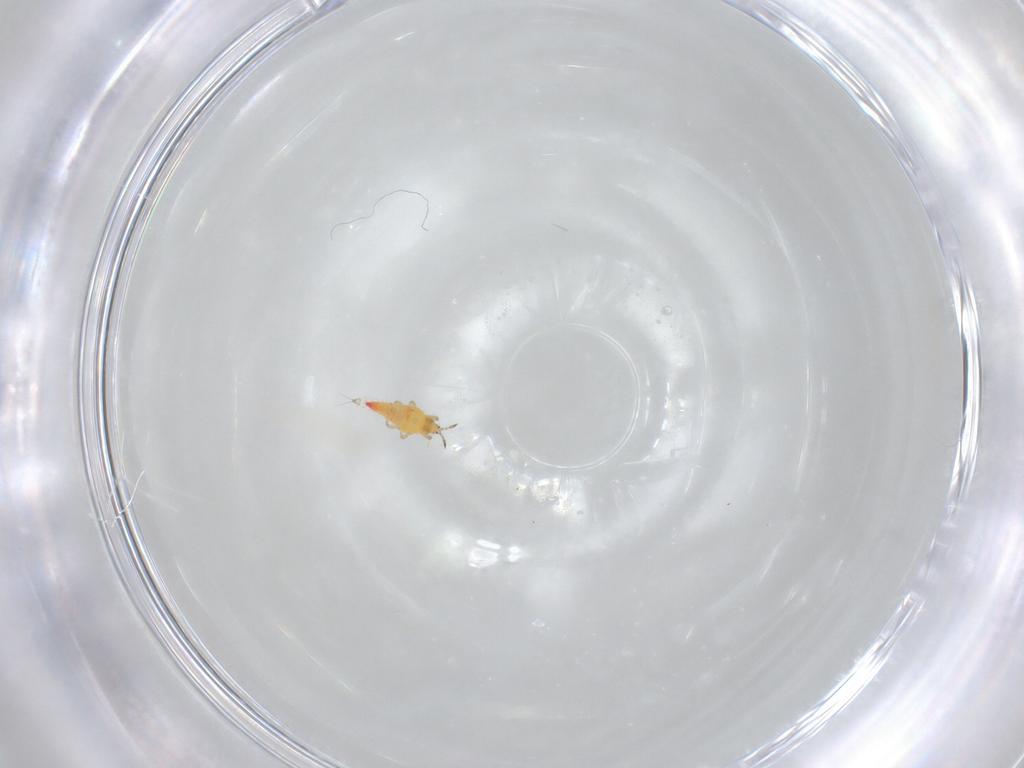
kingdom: Animalia
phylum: Arthropoda
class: Insecta
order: Thysanoptera
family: Phlaeothripidae
